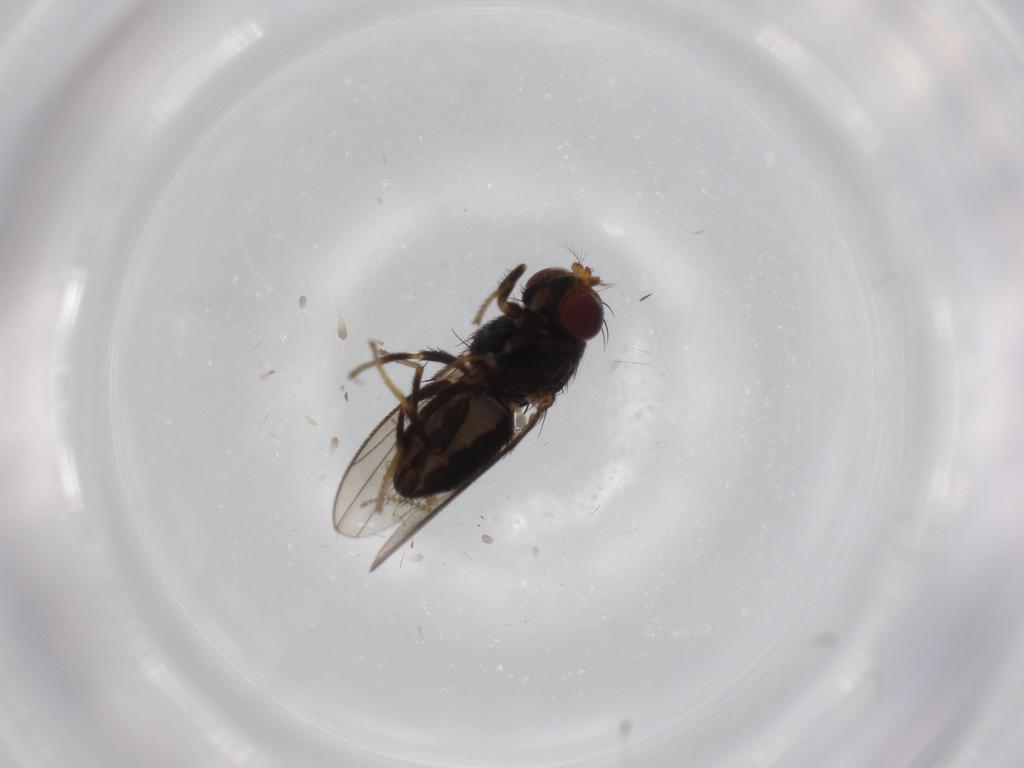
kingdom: Animalia
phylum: Arthropoda
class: Insecta
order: Diptera
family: Ephydridae
